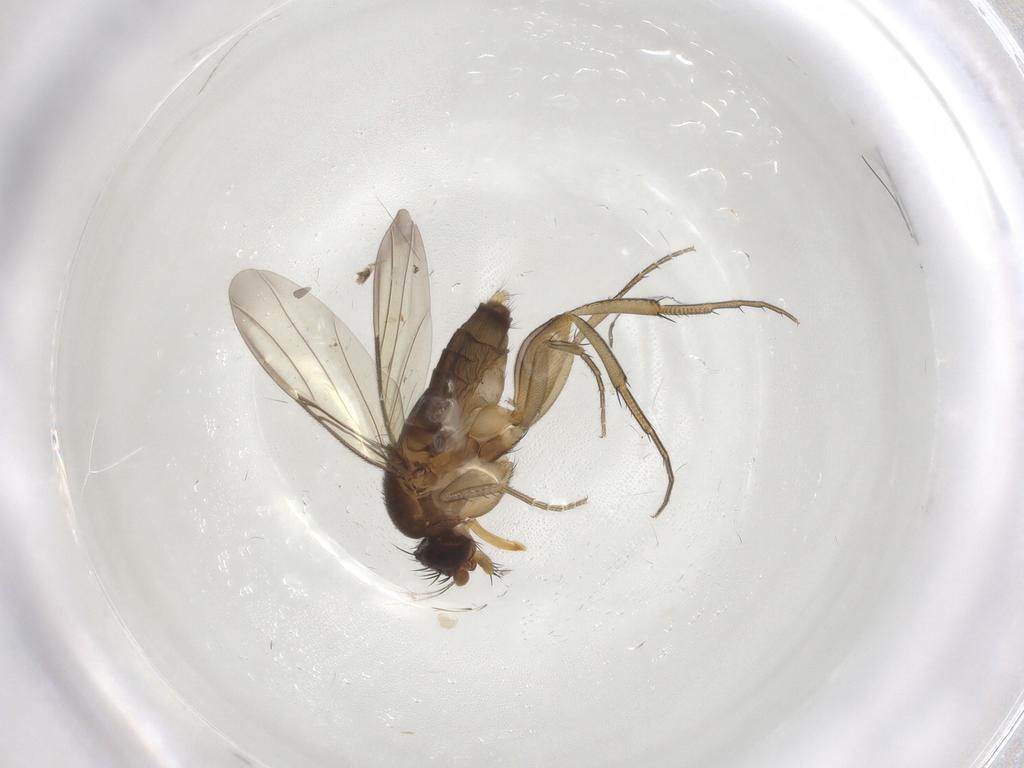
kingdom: Animalia
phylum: Arthropoda
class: Insecta
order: Diptera
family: Phoridae
